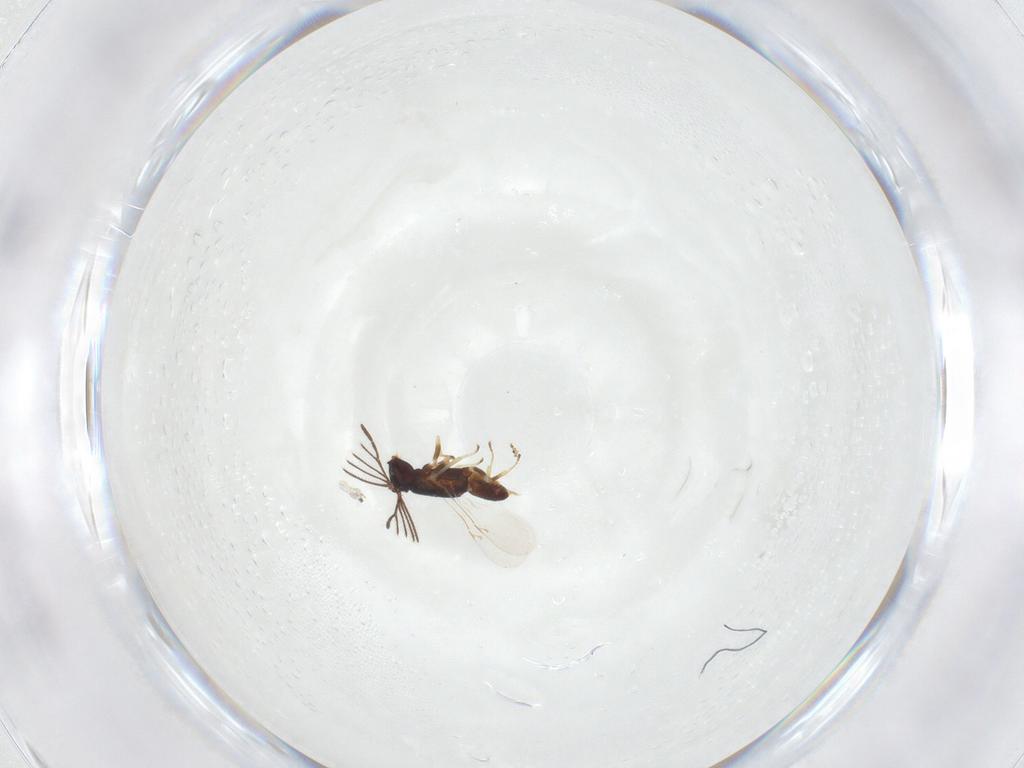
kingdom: Animalia
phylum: Arthropoda
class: Insecta
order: Hymenoptera
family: Encyrtidae
